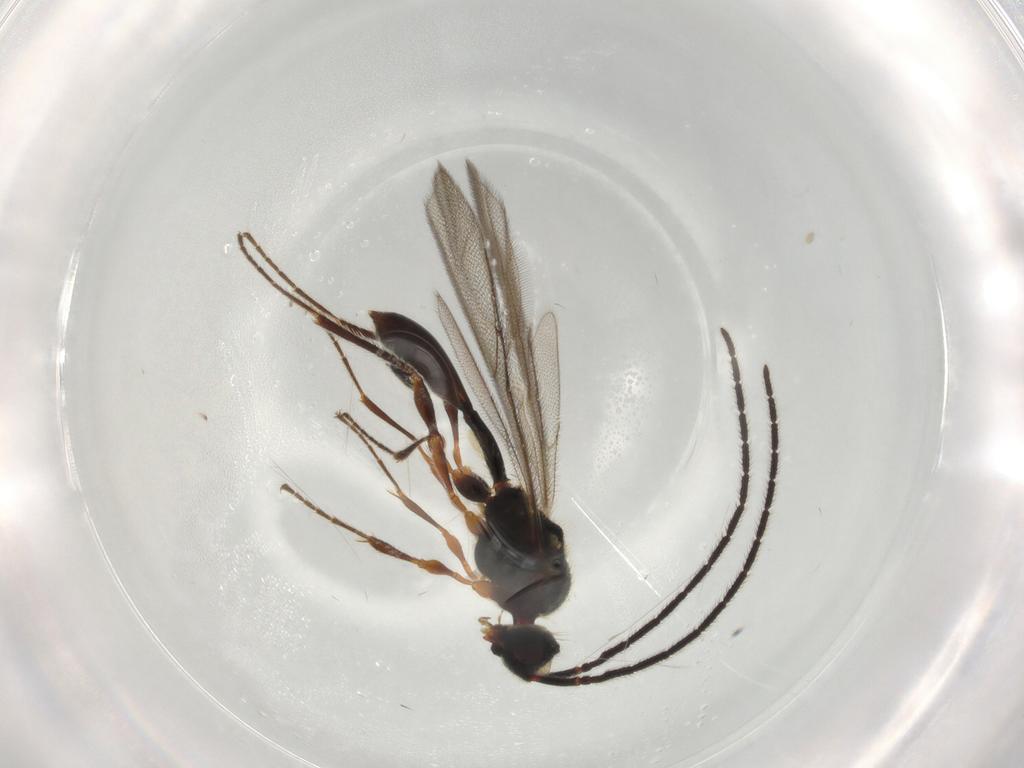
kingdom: Animalia
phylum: Arthropoda
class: Insecta
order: Hymenoptera
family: Diapriidae
